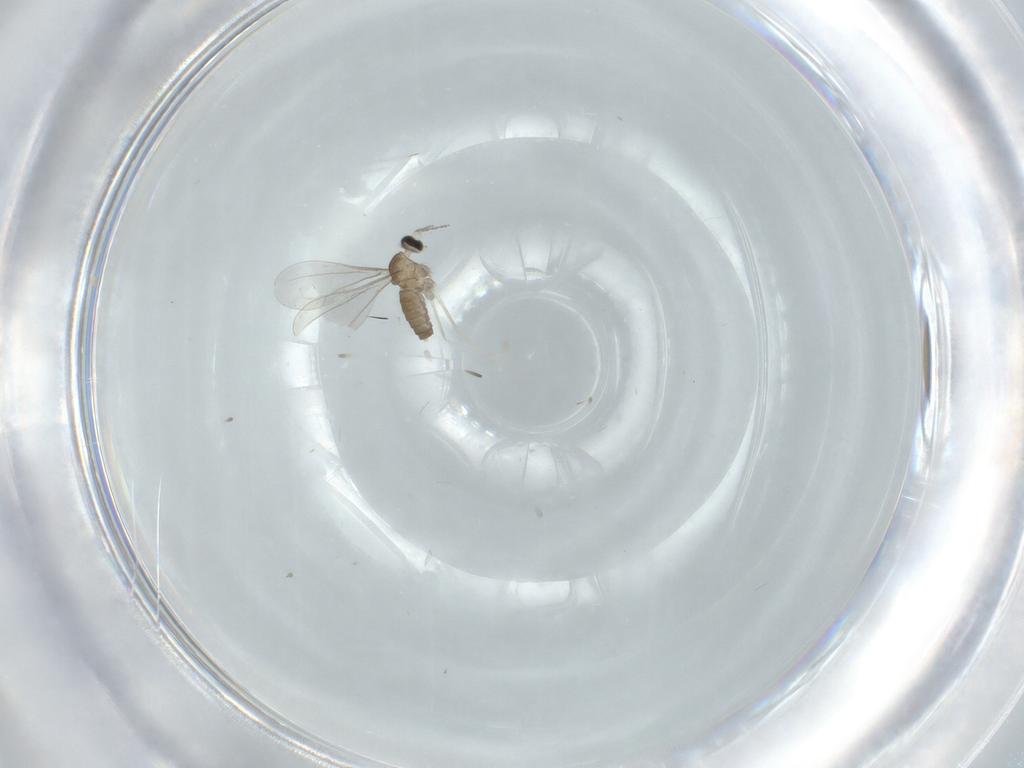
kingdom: Animalia
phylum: Arthropoda
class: Insecta
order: Diptera
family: Cecidomyiidae
